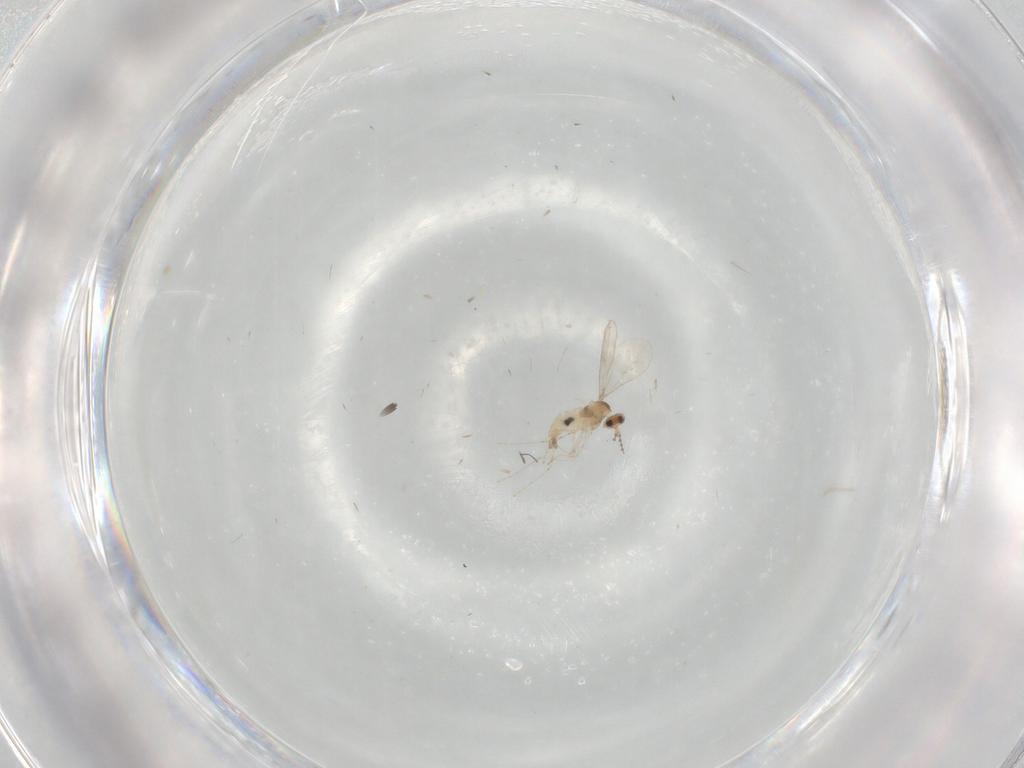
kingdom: Animalia
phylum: Arthropoda
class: Insecta
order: Diptera
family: Cecidomyiidae
